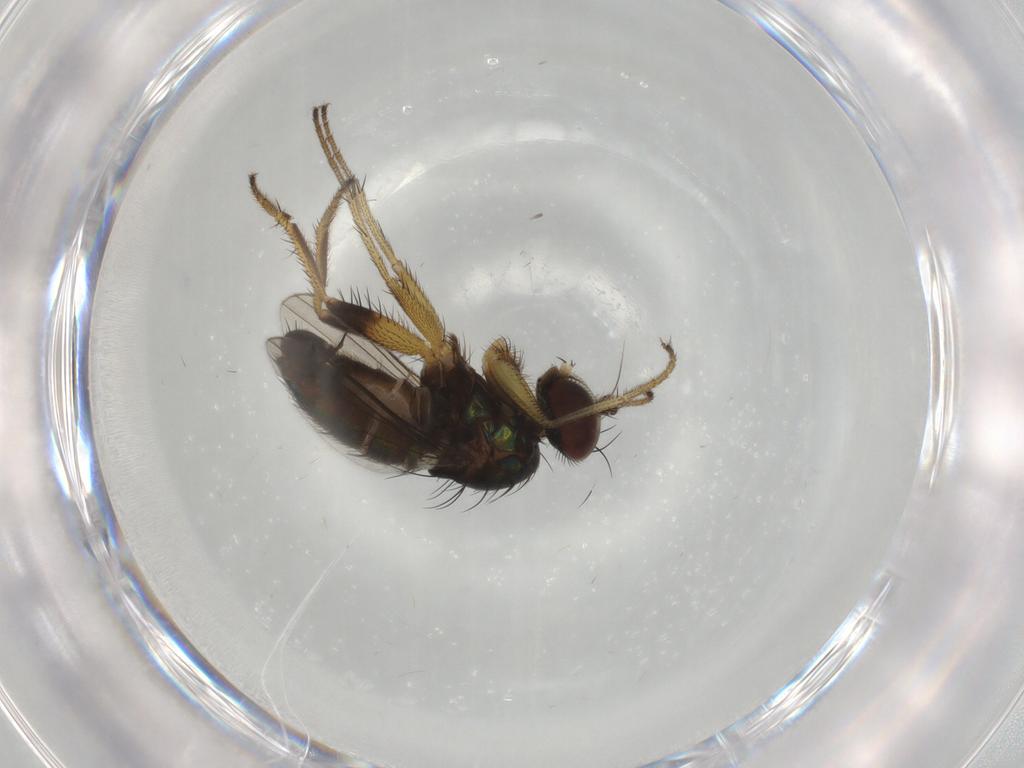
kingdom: Animalia
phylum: Arthropoda
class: Insecta
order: Diptera
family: Dolichopodidae
